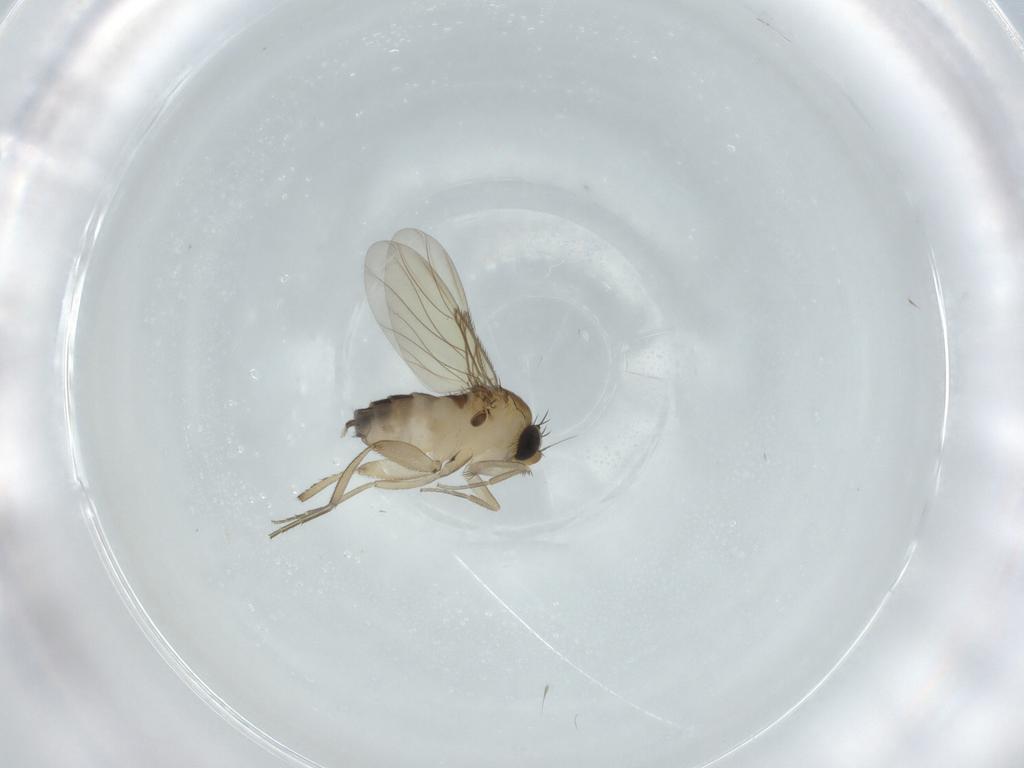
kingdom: Animalia
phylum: Arthropoda
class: Insecta
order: Diptera
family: Phoridae
